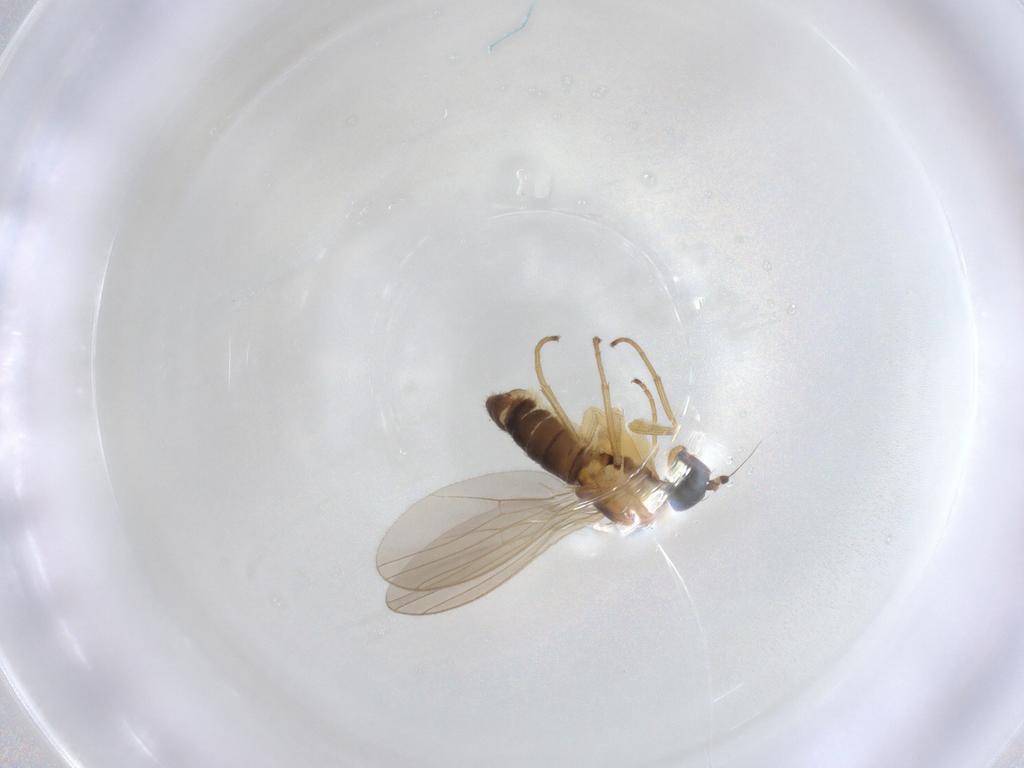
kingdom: Animalia
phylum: Arthropoda
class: Insecta
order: Diptera
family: Dolichopodidae
